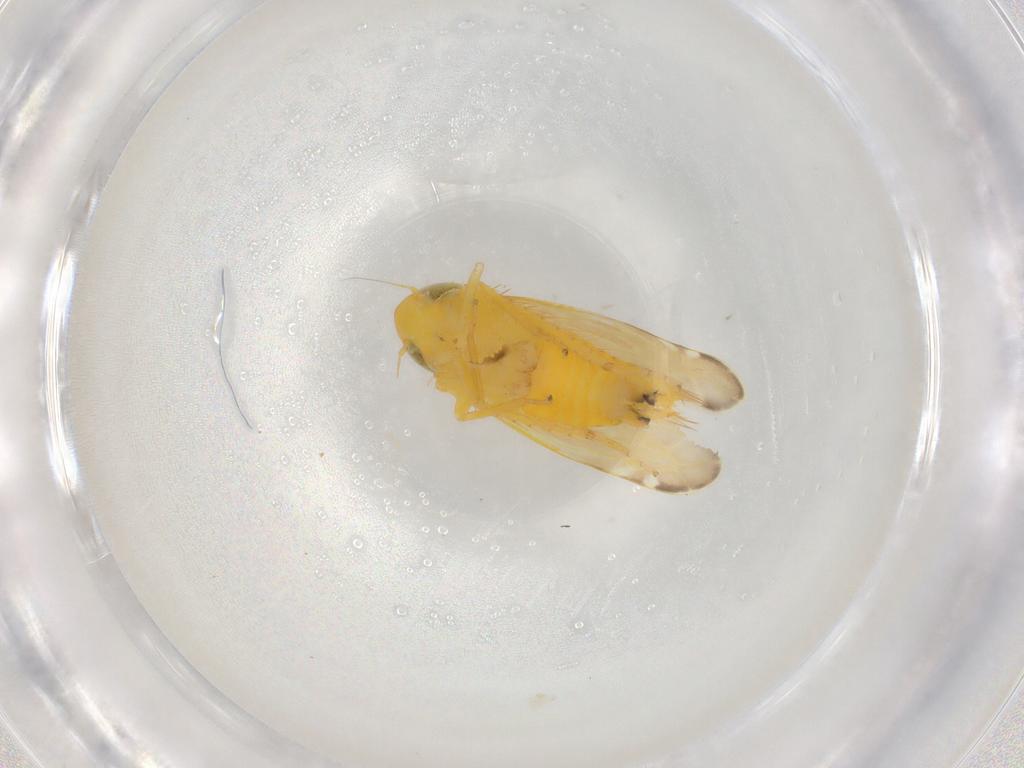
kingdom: Animalia
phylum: Arthropoda
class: Insecta
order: Hemiptera
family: Cicadellidae
